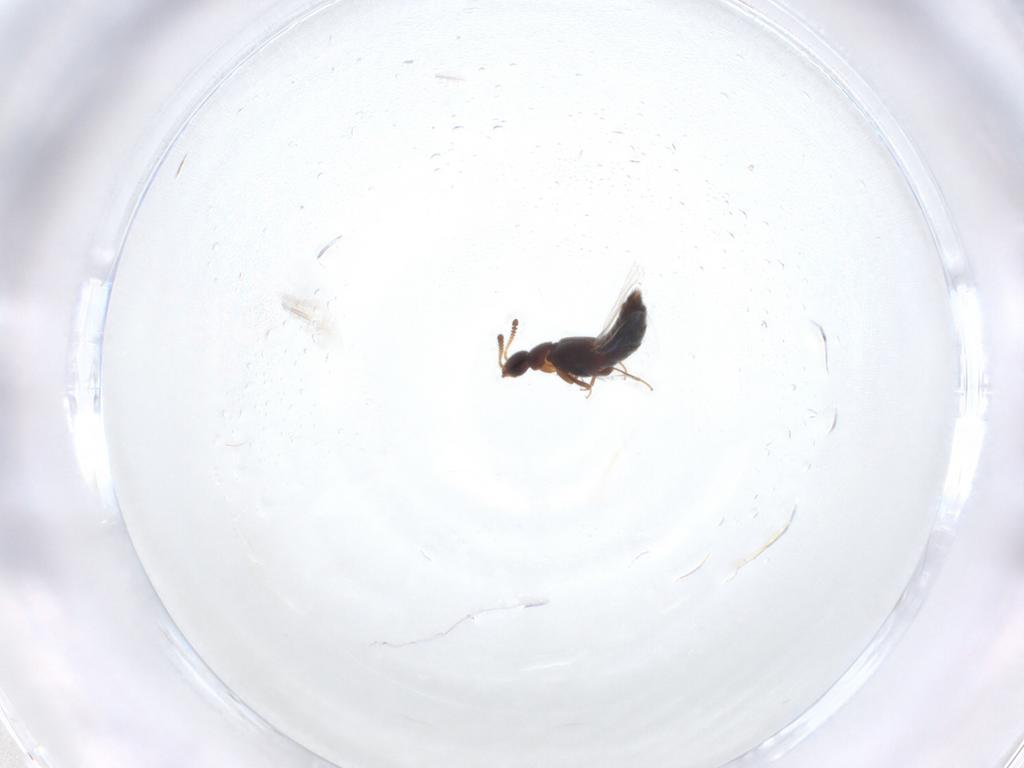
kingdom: Animalia
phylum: Arthropoda
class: Insecta
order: Coleoptera
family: Staphylinidae
